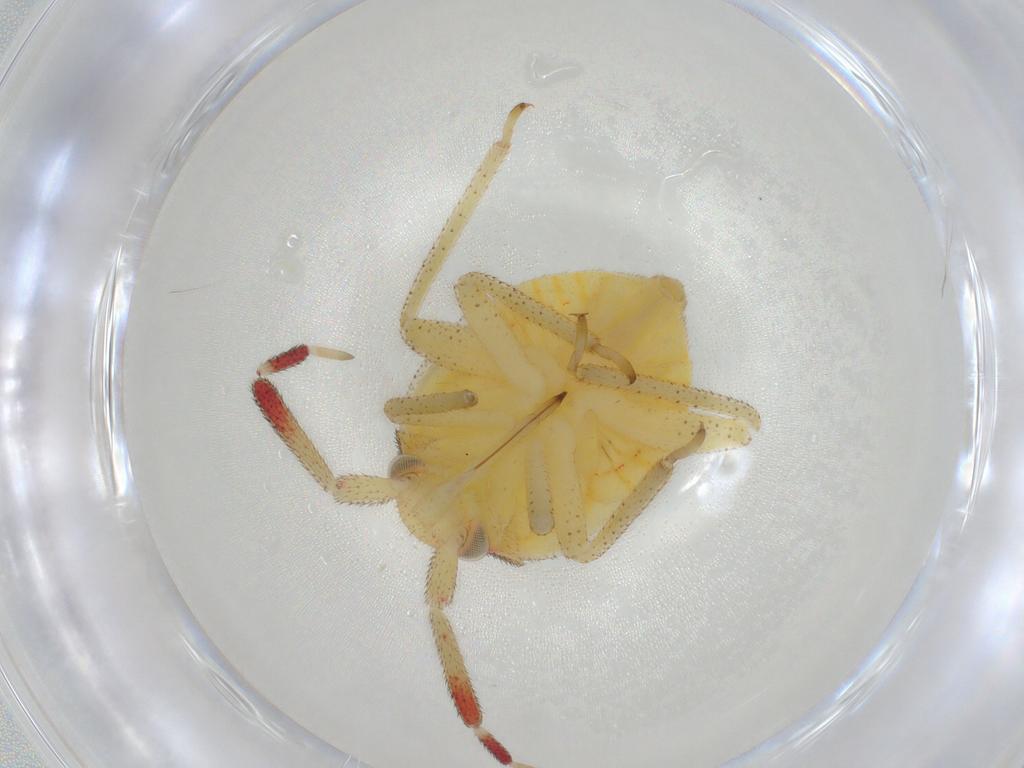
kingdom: Animalia
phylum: Arthropoda
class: Insecta
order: Hemiptera
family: Miridae
